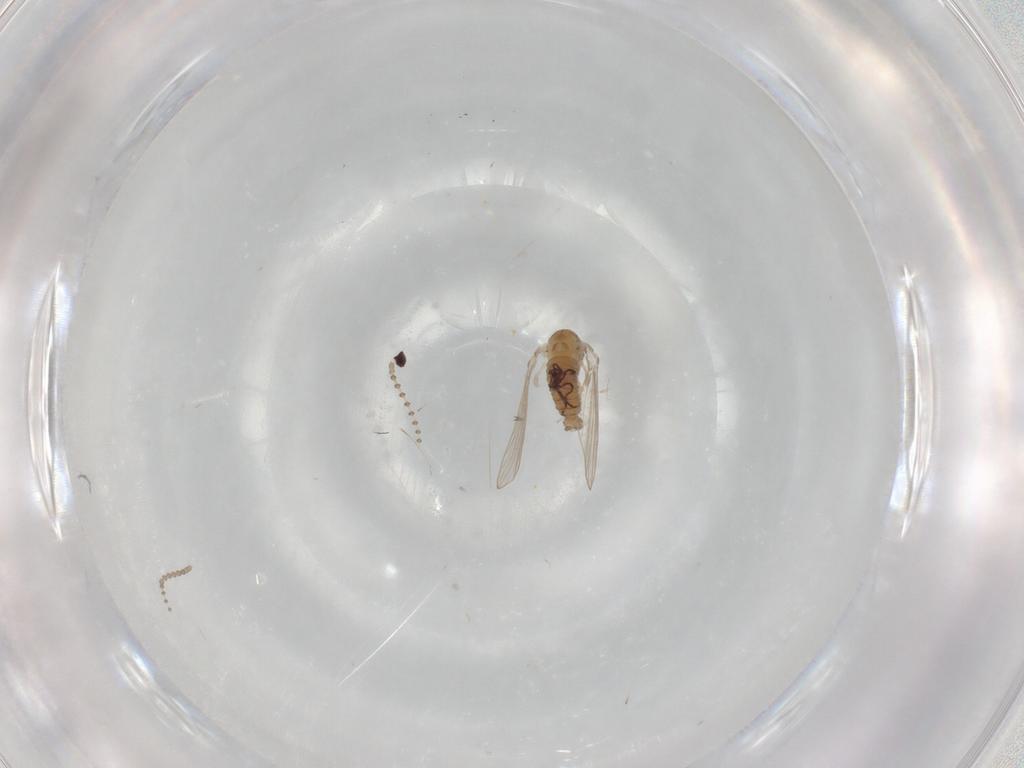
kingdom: Animalia
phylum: Arthropoda
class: Insecta
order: Diptera
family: Psychodidae
